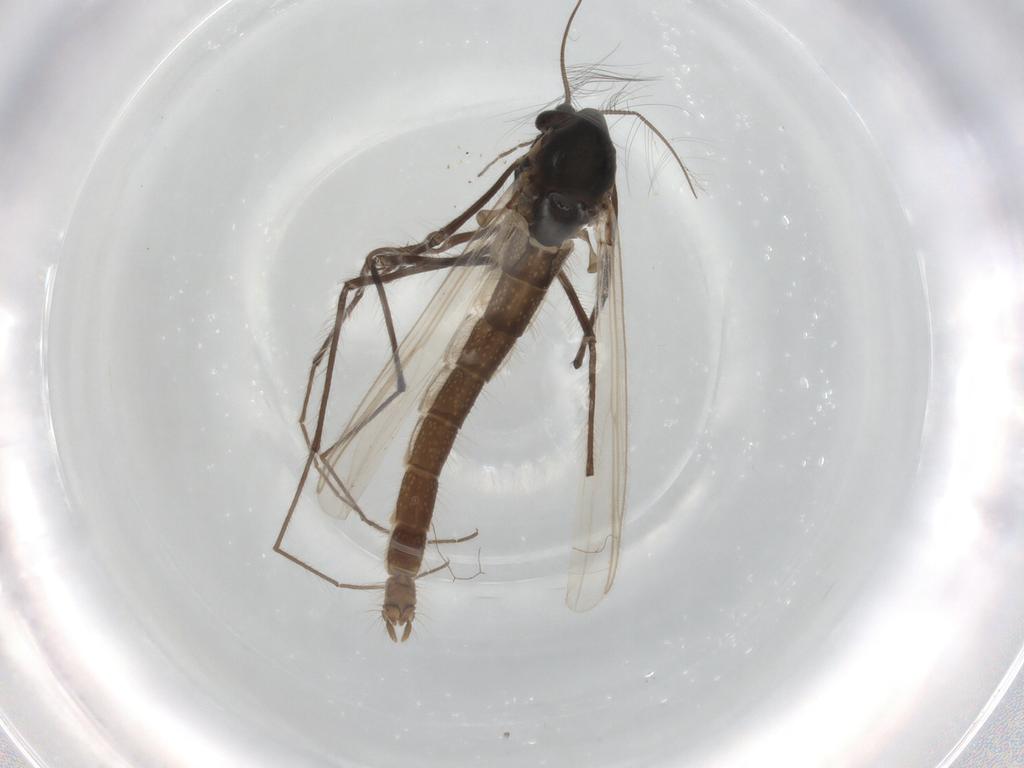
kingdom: Animalia
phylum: Arthropoda
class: Insecta
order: Diptera
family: Chironomidae
